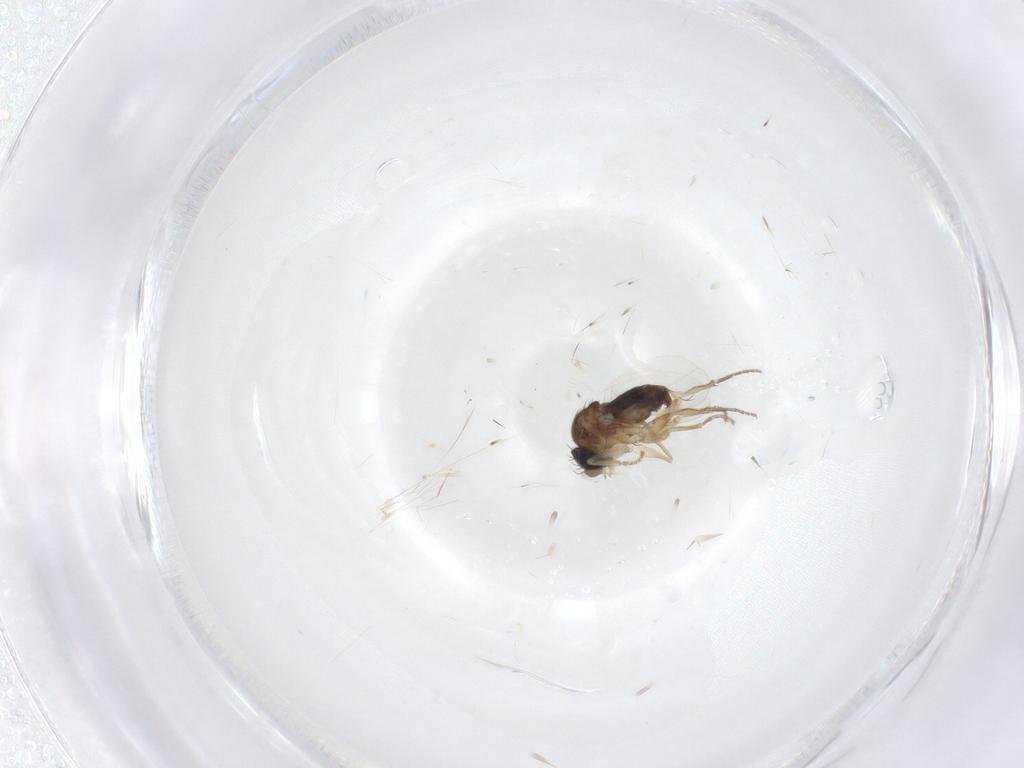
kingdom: Animalia
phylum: Arthropoda
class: Insecta
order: Diptera
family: Phoridae
